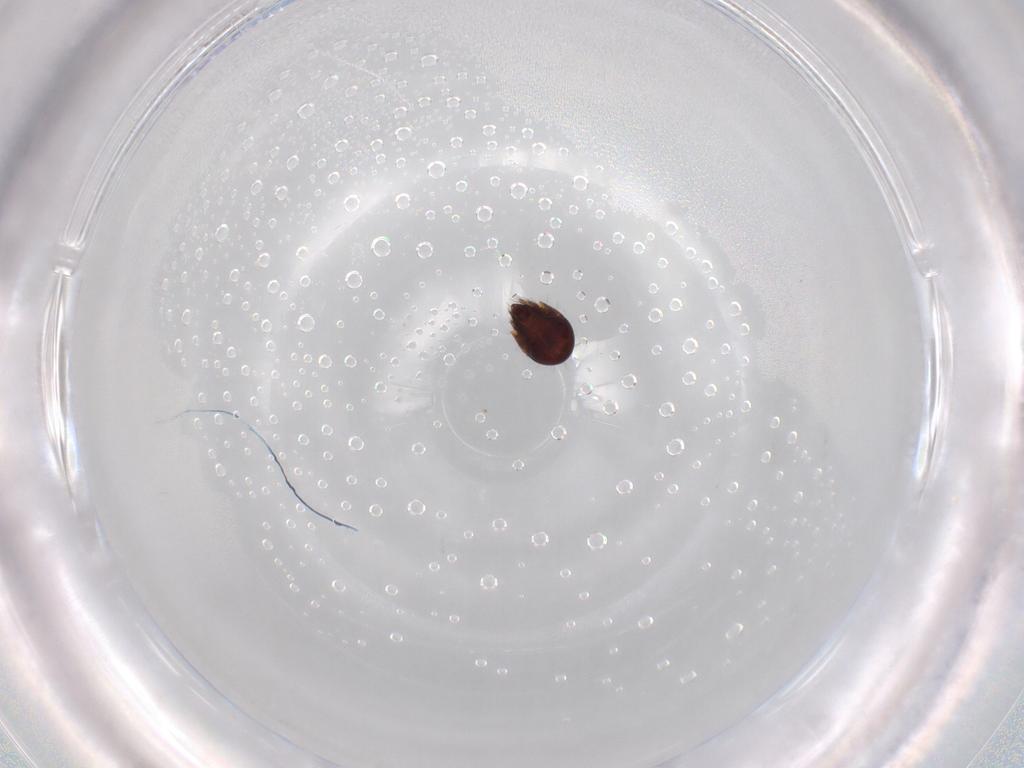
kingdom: Animalia
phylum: Arthropoda
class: Arachnida
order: Sarcoptiformes
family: Humerobatidae
